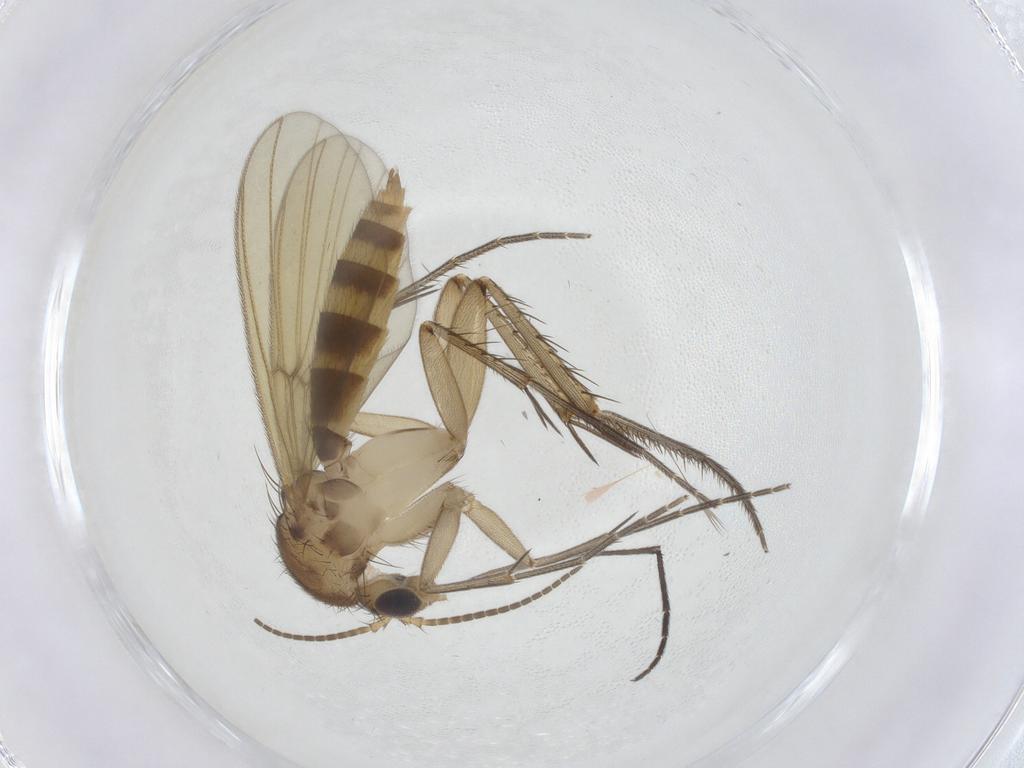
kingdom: Animalia
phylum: Arthropoda
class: Insecta
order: Diptera
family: Mycetophilidae
